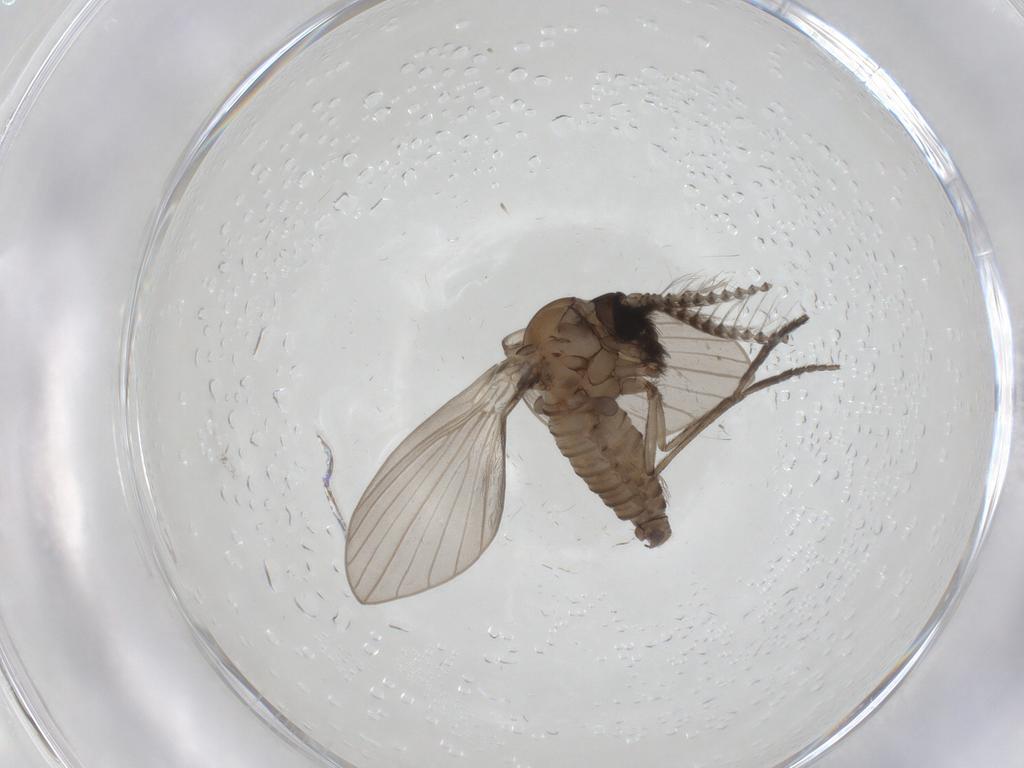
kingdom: Animalia
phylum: Arthropoda
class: Insecta
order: Diptera
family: Psychodidae
